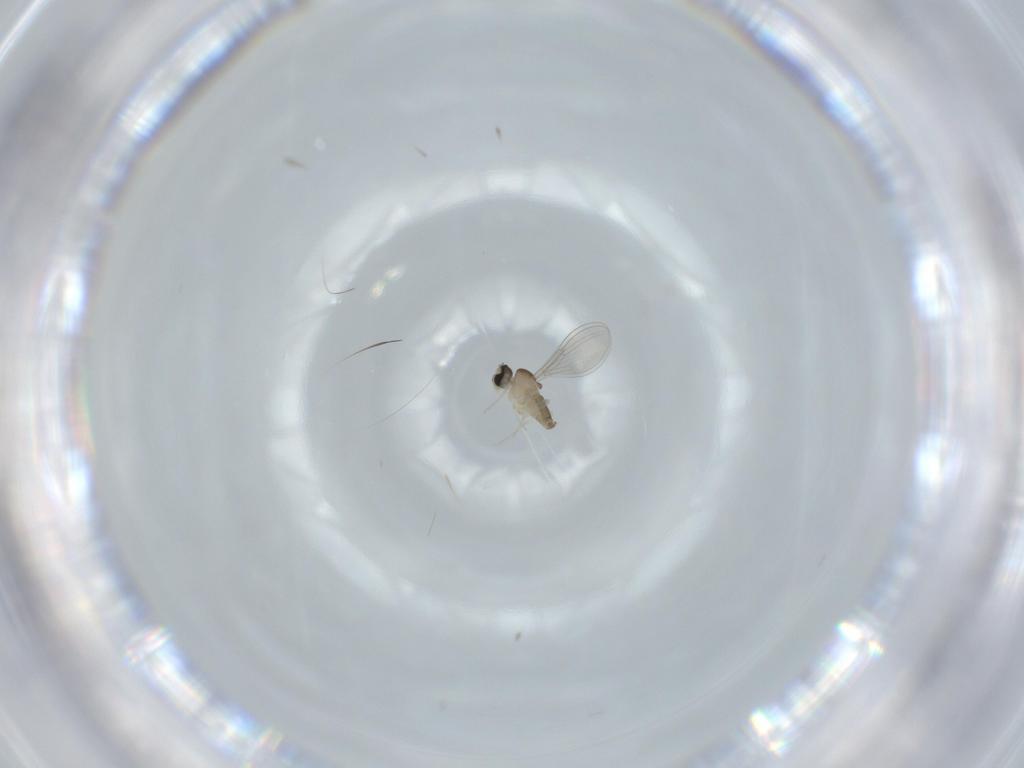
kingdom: Animalia
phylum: Arthropoda
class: Insecta
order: Diptera
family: Cecidomyiidae
